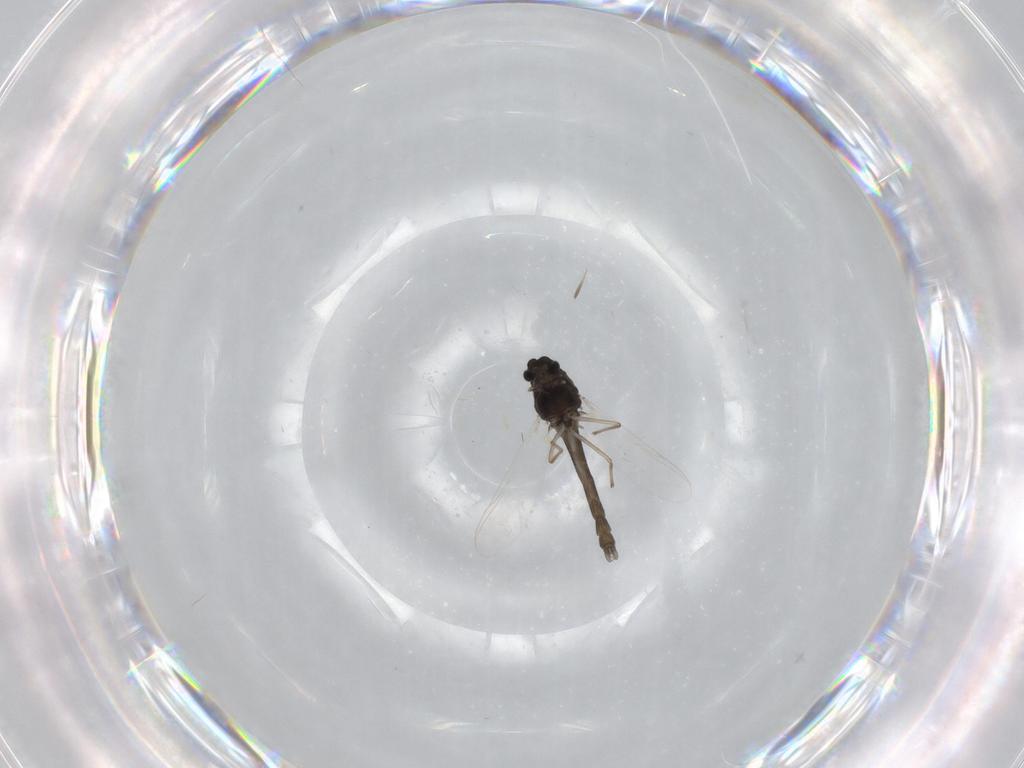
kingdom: Animalia
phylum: Arthropoda
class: Insecta
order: Diptera
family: Chironomidae
